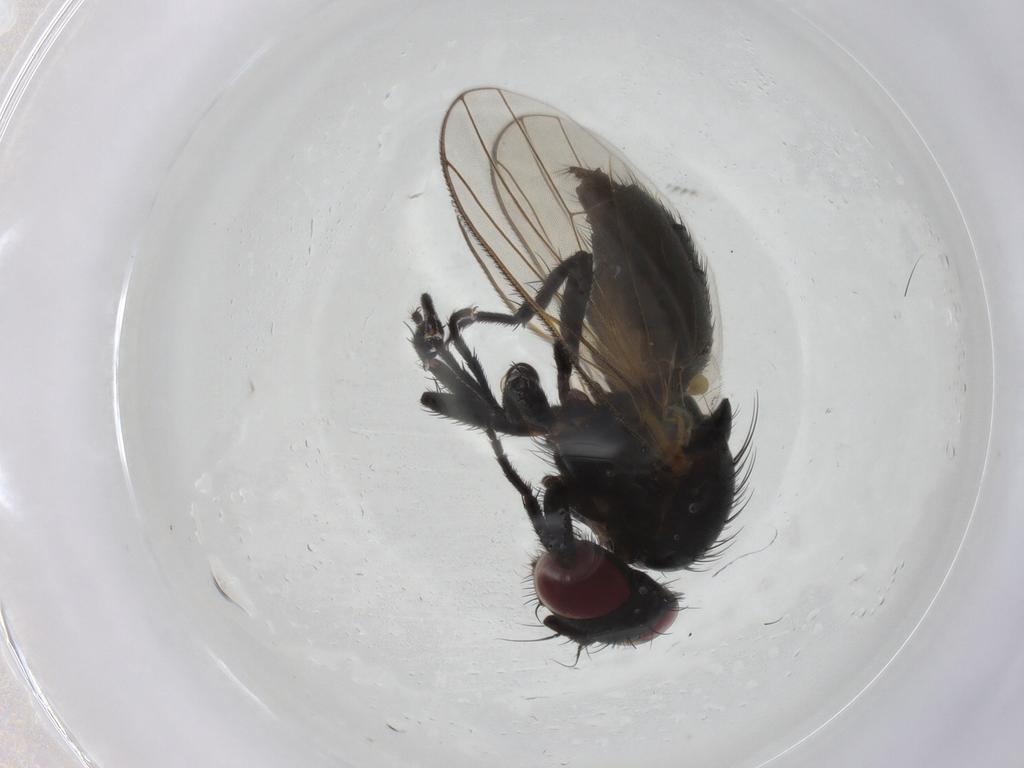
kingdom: Animalia
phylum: Arthropoda
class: Insecta
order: Diptera
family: Fannia
